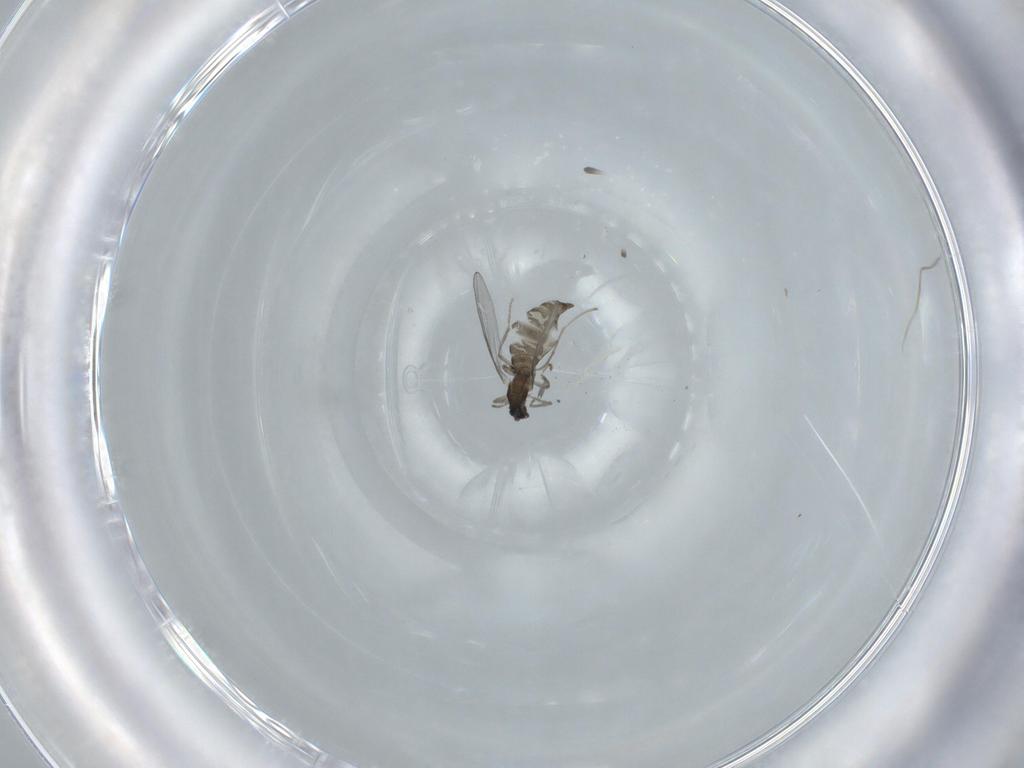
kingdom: Animalia
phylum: Arthropoda
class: Insecta
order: Diptera
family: Cecidomyiidae
